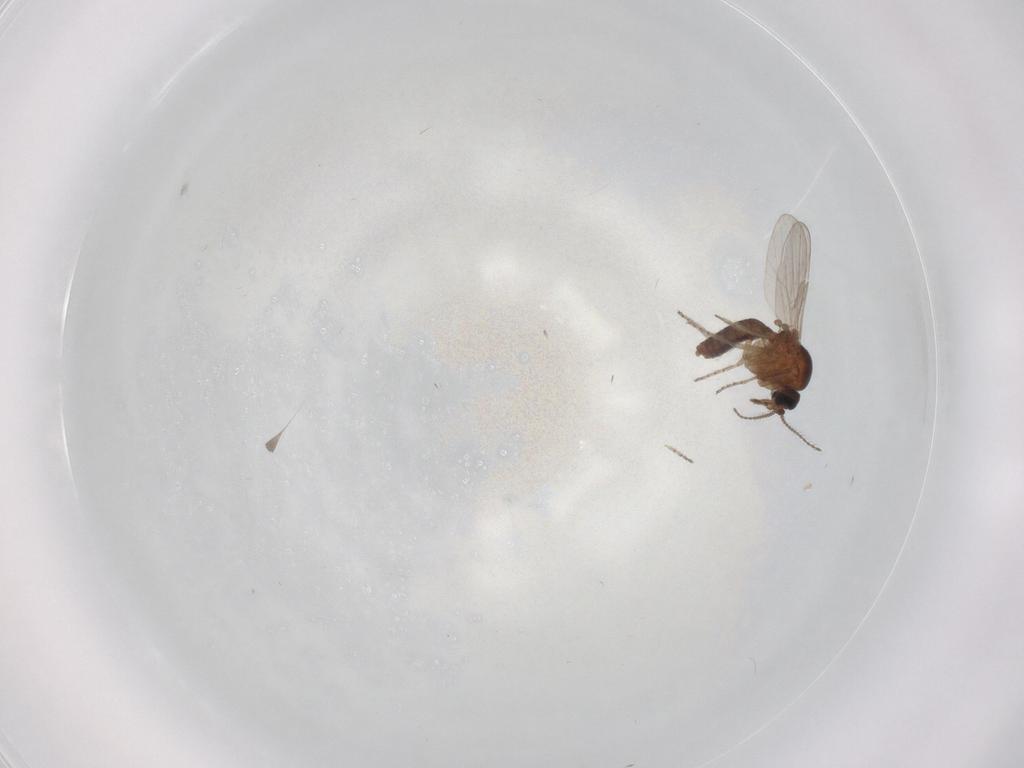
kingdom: Animalia
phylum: Arthropoda
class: Insecta
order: Diptera
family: Ceratopogonidae
